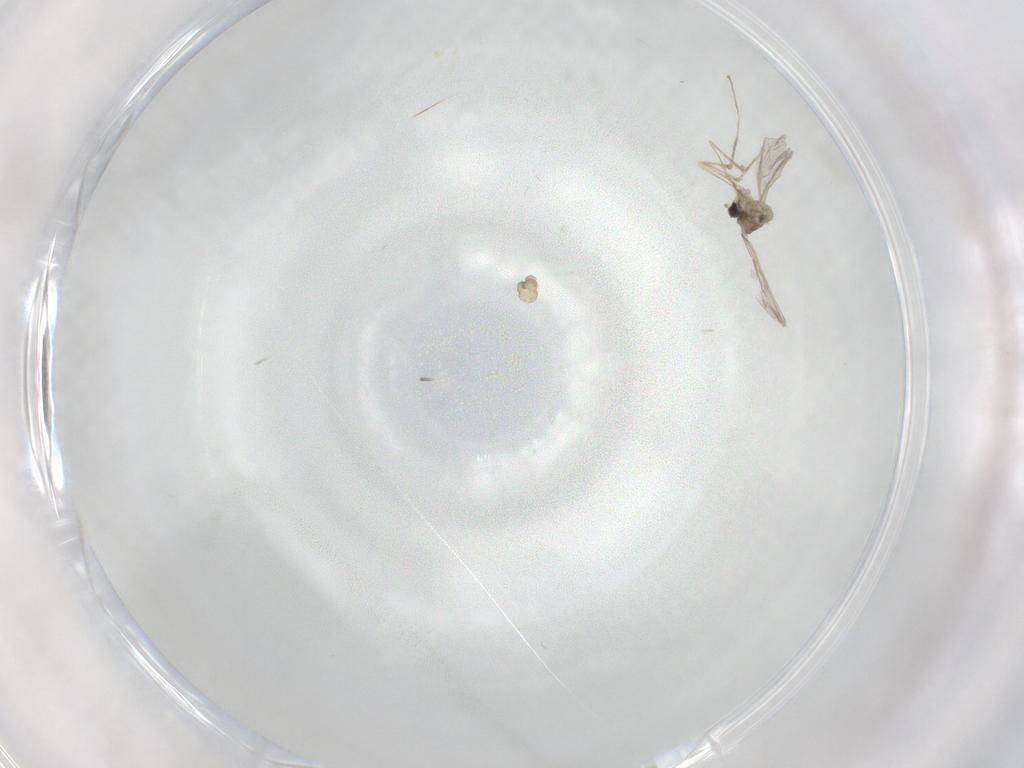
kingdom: Animalia
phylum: Arthropoda
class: Insecta
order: Diptera
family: Cecidomyiidae
